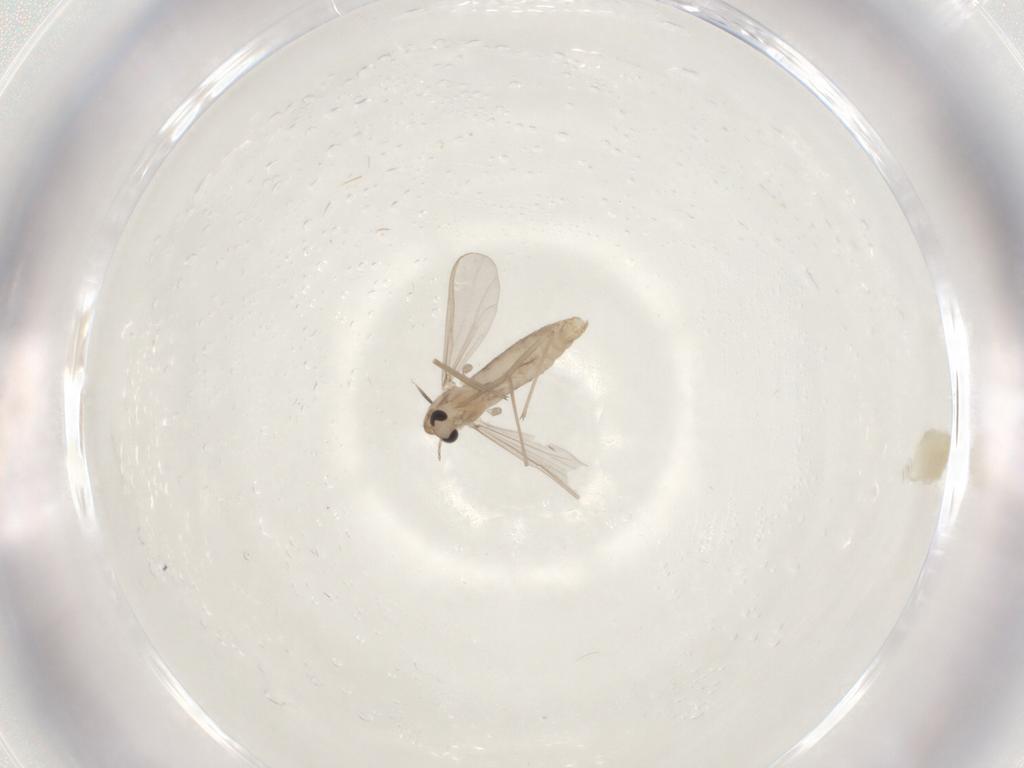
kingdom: Animalia
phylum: Arthropoda
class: Insecta
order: Diptera
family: Chironomidae
